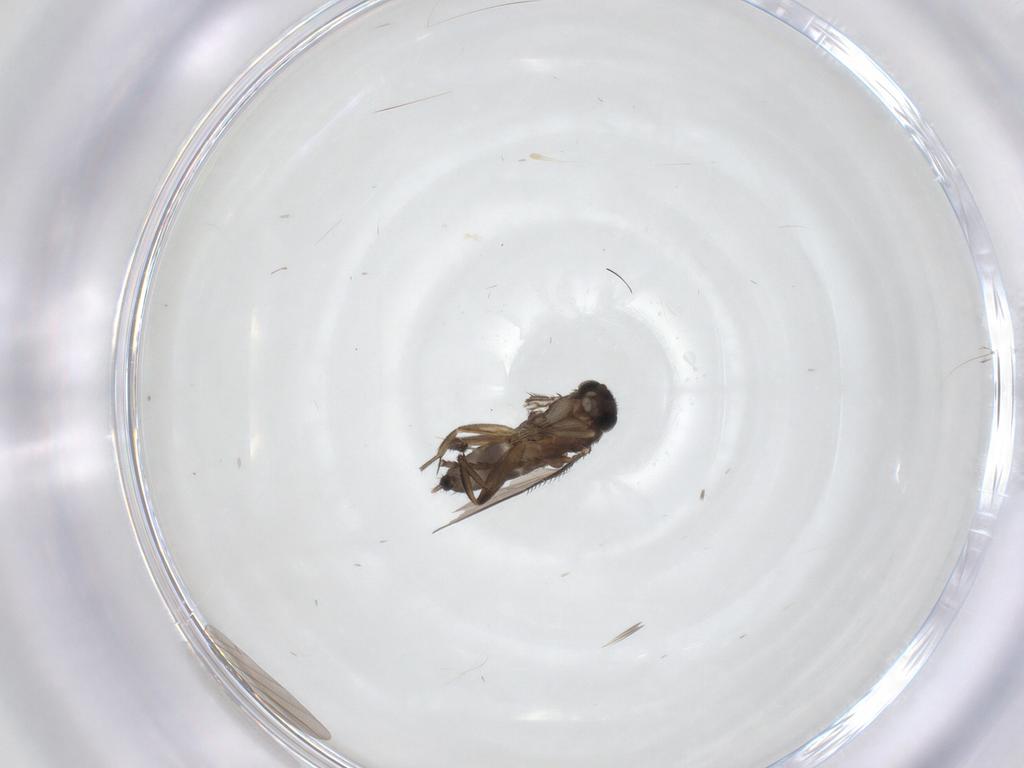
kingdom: Animalia
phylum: Arthropoda
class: Insecta
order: Diptera
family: Phoridae
